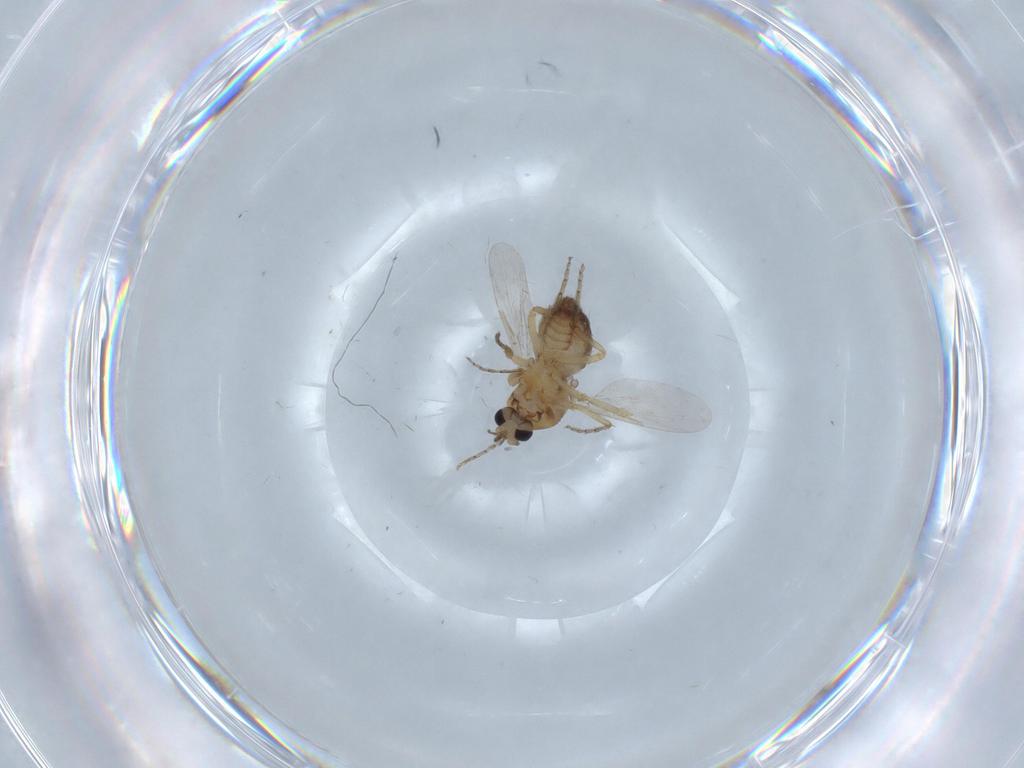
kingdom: Animalia
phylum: Arthropoda
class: Insecta
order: Diptera
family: Ceratopogonidae
